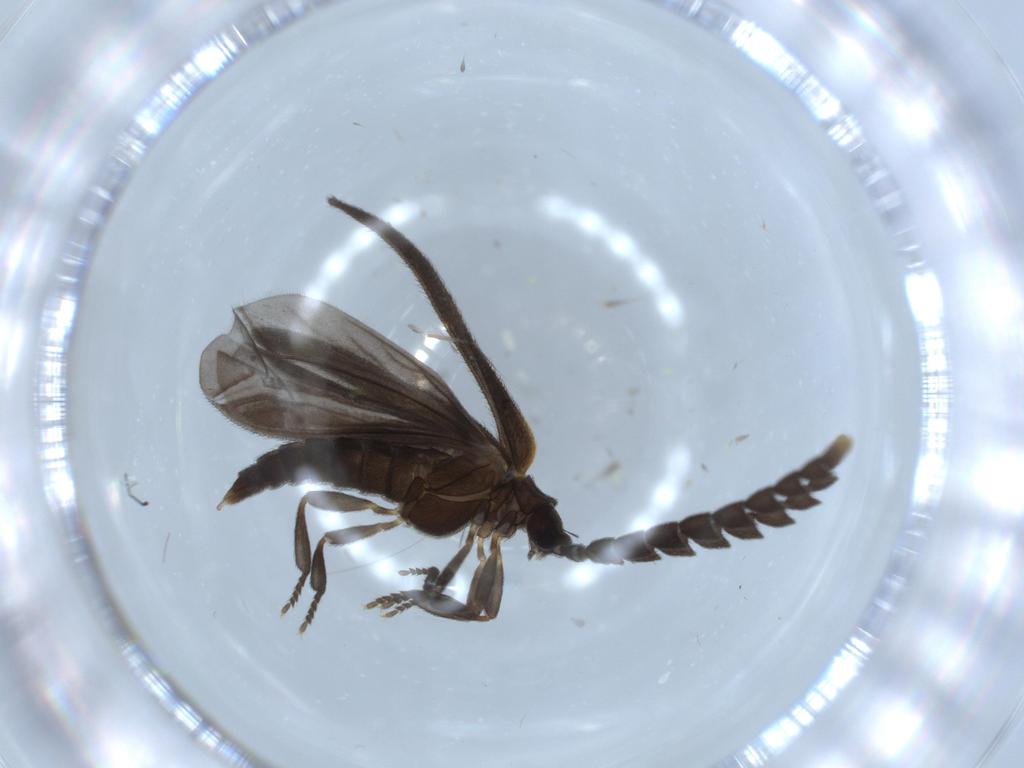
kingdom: Animalia
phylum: Arthropoda
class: Insecta
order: Coleoptera
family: Lycidae
